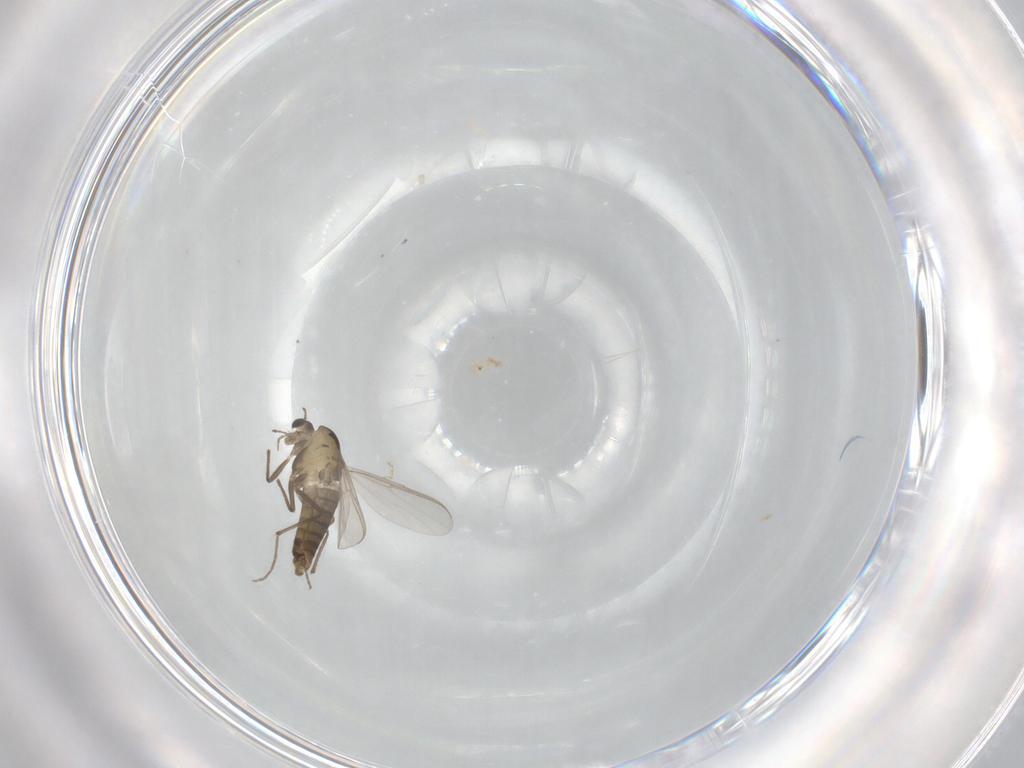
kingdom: Animalia
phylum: Arthropoda
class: Insecta
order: Diptera
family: Chironomidae
